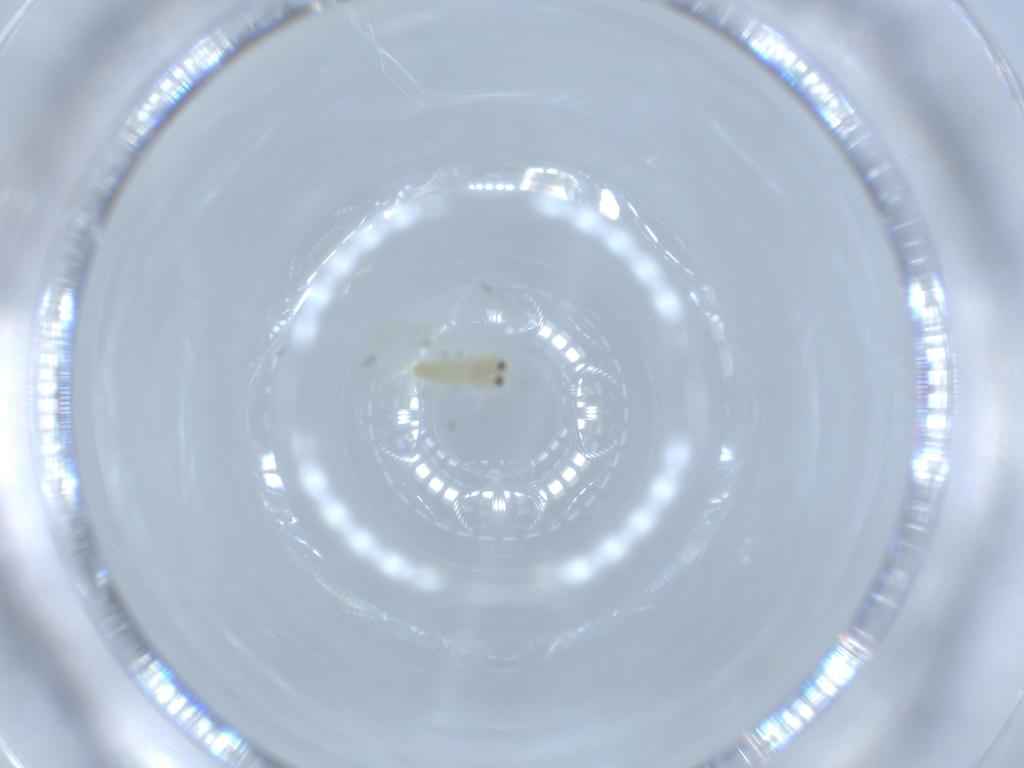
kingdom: Animalia
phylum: Arthropoda
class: Insecta
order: Hemiptera
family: Aleyrodidae
